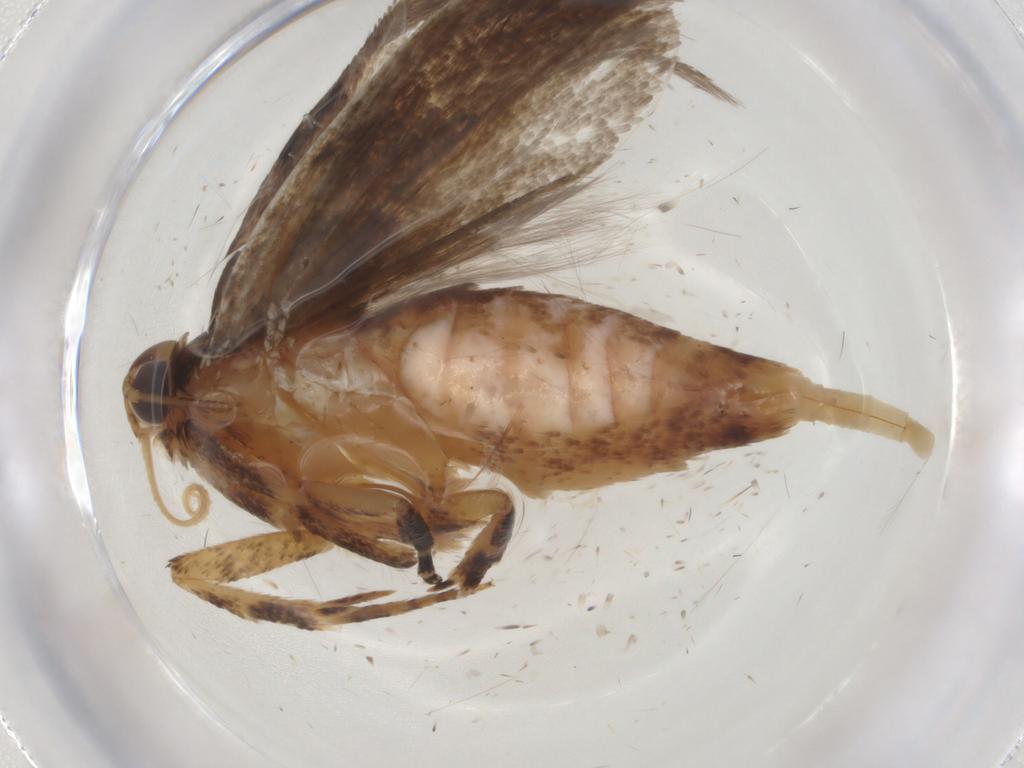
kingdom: Animalia
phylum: Arthropoda
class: Insecta
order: Lepidoptera
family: Gelechiidae
